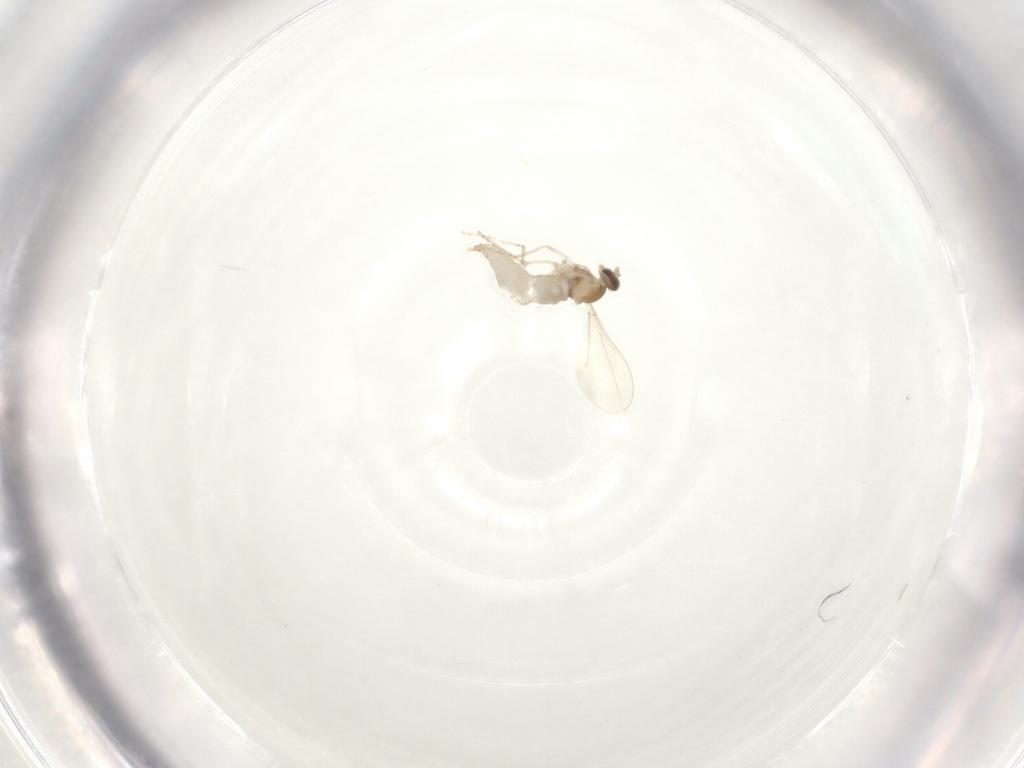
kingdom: Animalia
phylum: Arthropoda
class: Insecta
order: Diptera
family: Cecidomyiidae
